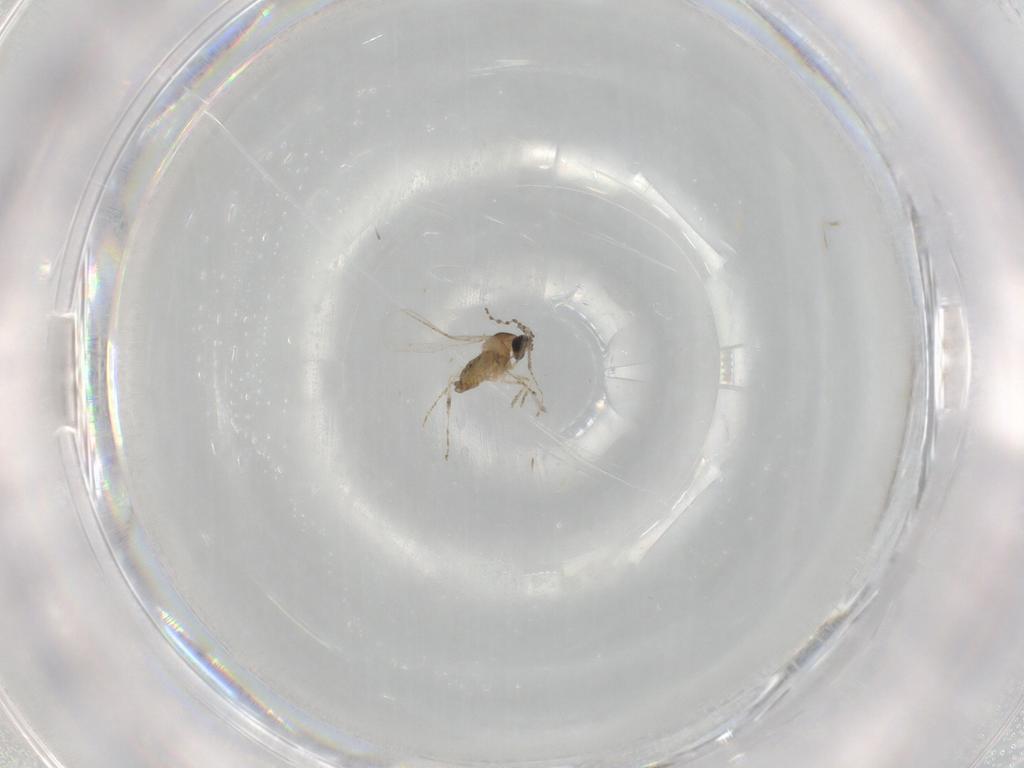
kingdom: Animalia
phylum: Arthropoda
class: Insecta
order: Diptera
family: Cecidomyiidae
